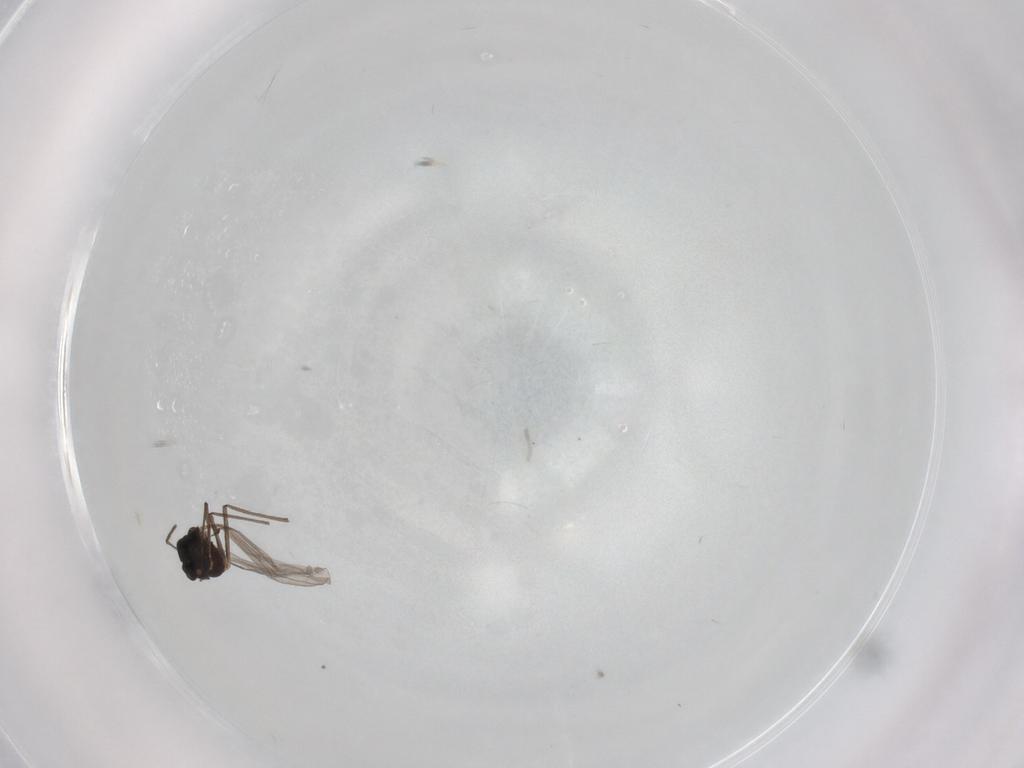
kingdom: Animalia
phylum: Arthropoda
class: Insecta
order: Diptera
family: Chironomidae
